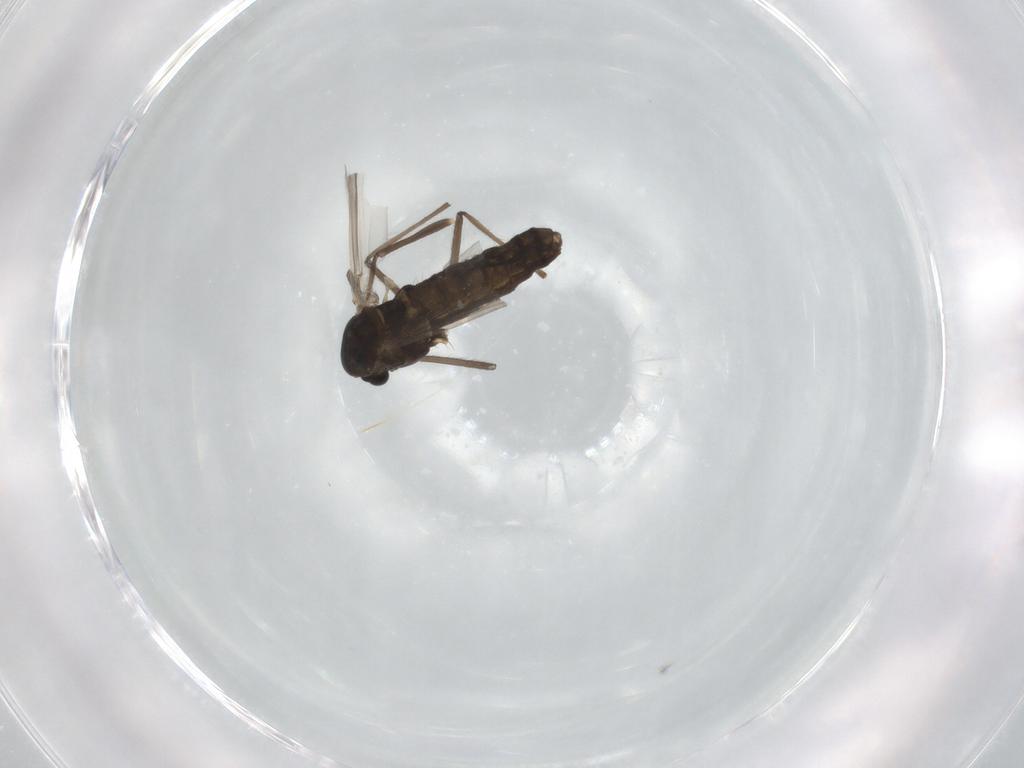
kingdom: Animalia
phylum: Arthropoda
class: Insecta
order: Diptera
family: Chironomidae
